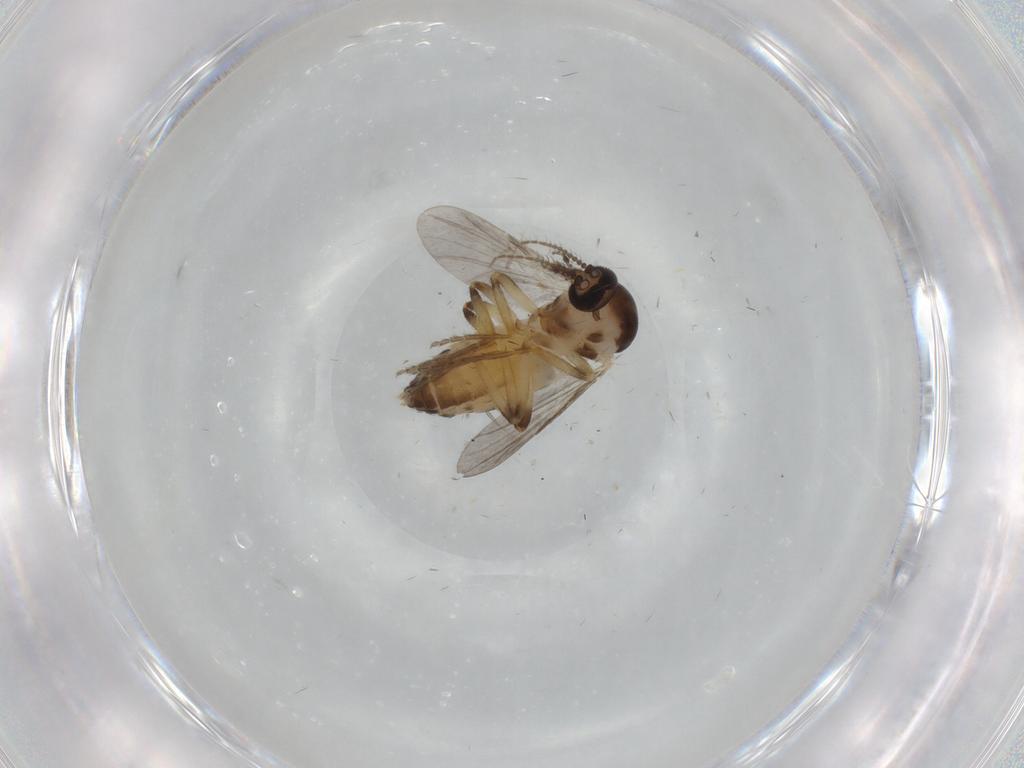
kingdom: Animalia
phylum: Arthropoda
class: Insecta
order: Diptera
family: Ceratopogonidae
